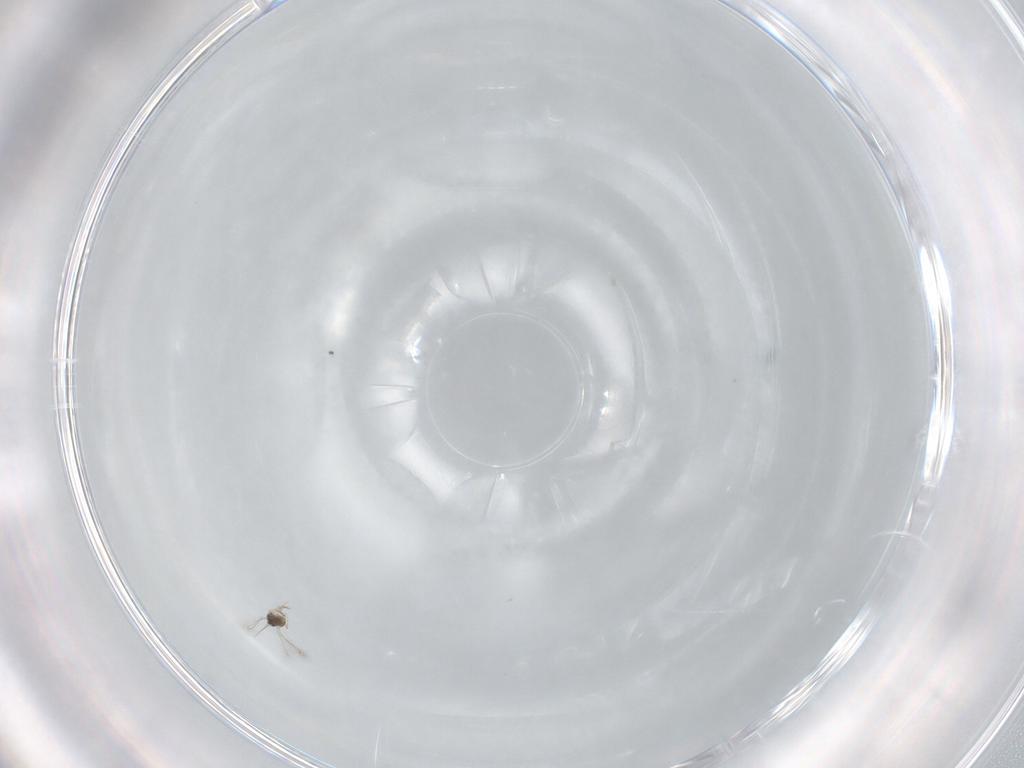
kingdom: Animalia
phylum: Arthropoda
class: Insecta
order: Hymenoptera
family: Mymaridae
